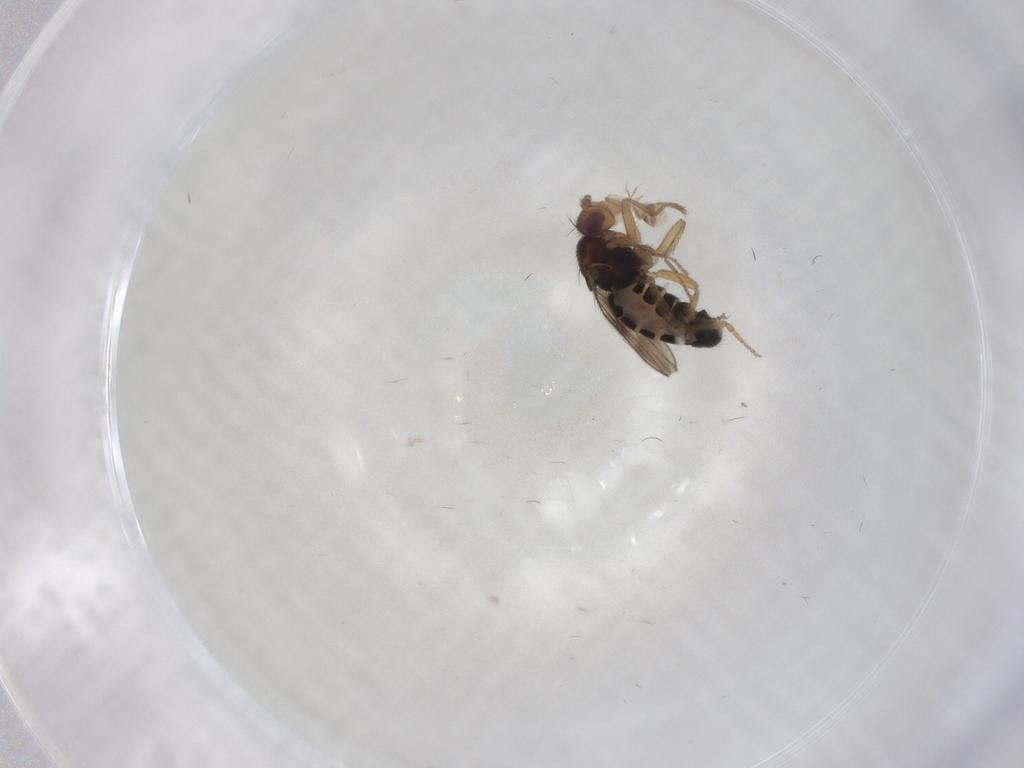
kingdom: Animalia
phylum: Arthropoda
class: Insecta
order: Diptera
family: Sphaeroceridae
